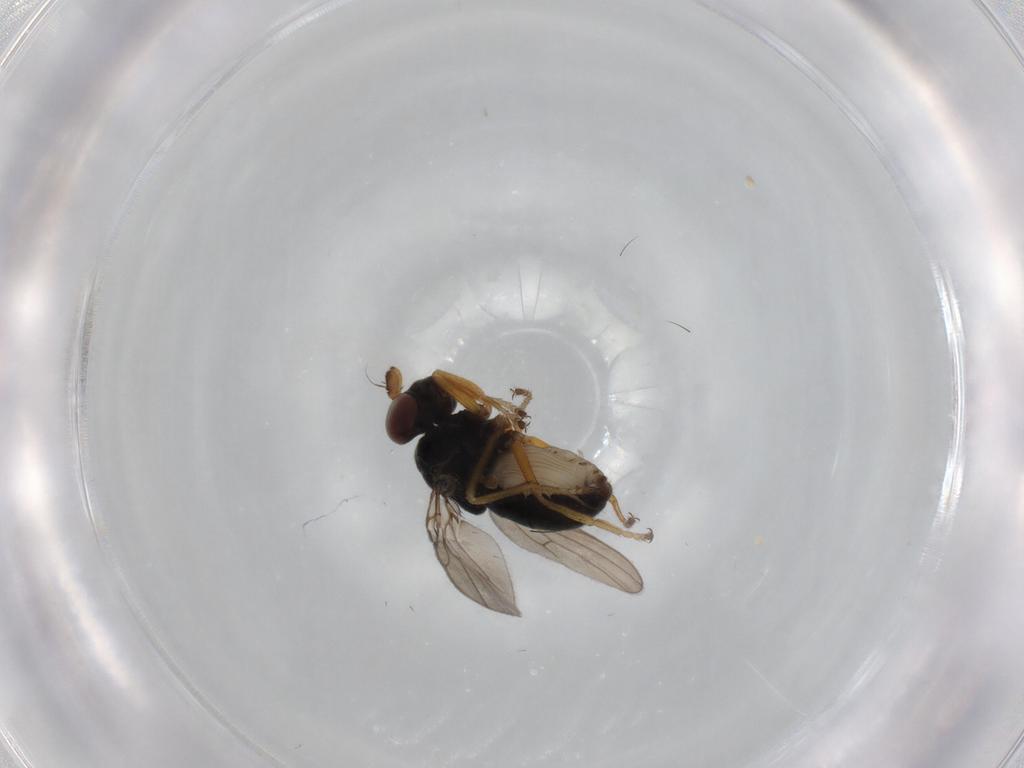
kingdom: Animalia
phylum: Arthropoda
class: Insecta
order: Diptera
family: Ephydridae
